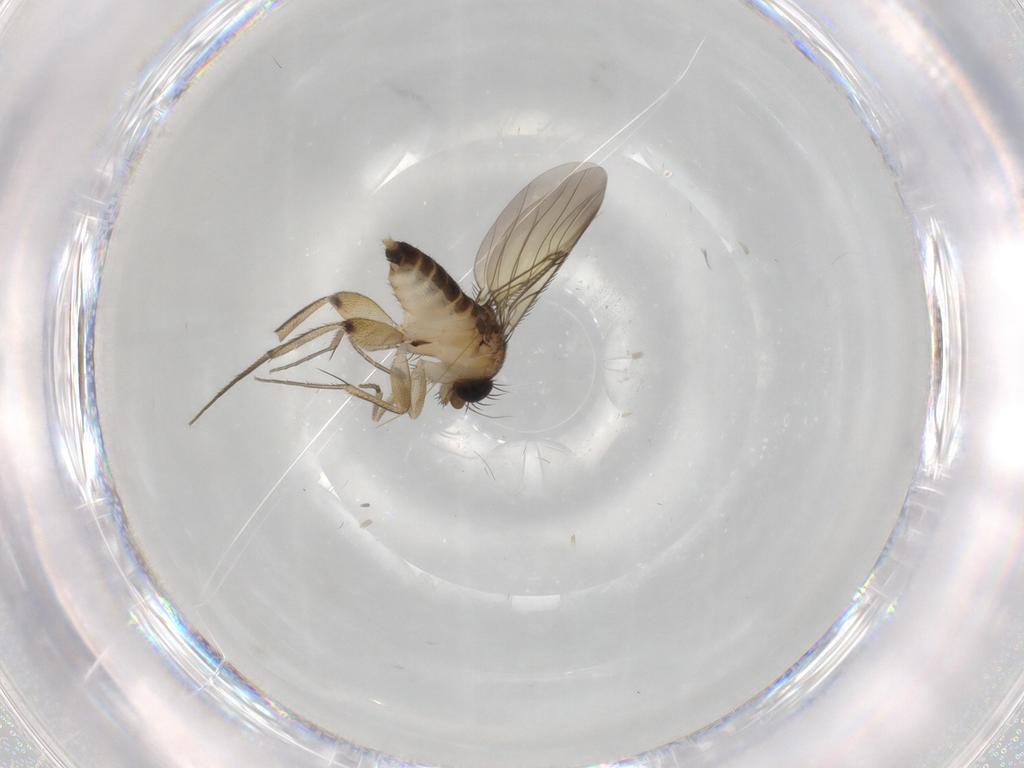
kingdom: Animalia
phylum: Arthropoda
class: Insecta
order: Diptera
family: Phoridae
